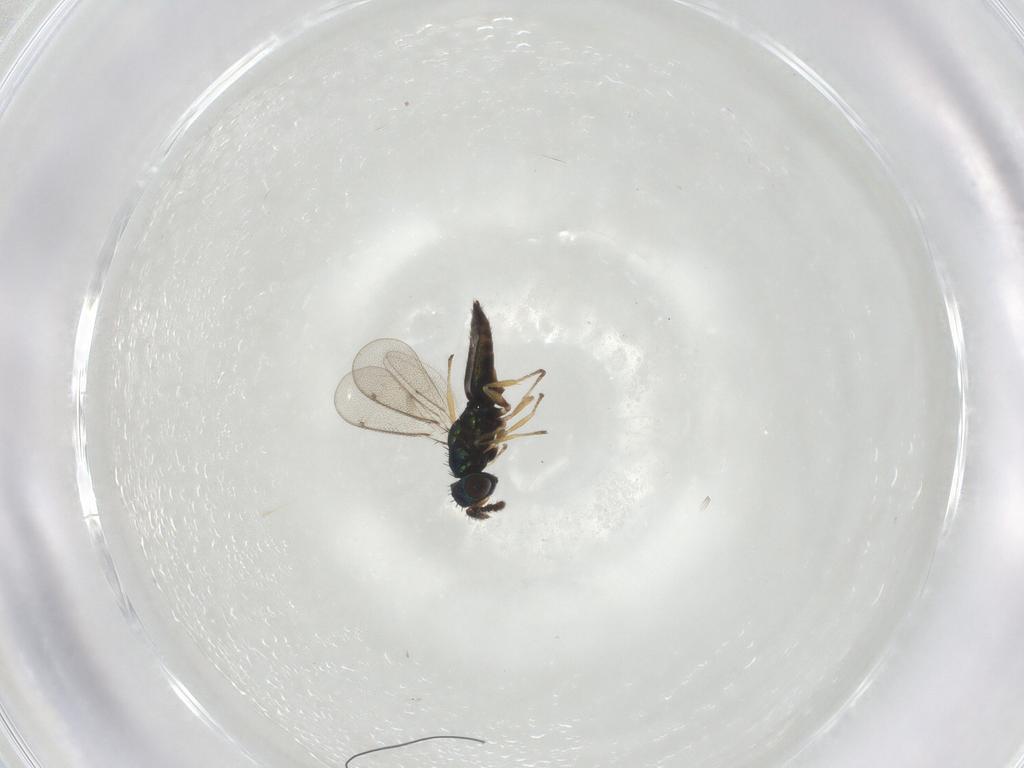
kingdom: Animalia
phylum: Arthropoda
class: Insecta
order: Hymenoptera
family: Eulophidae
